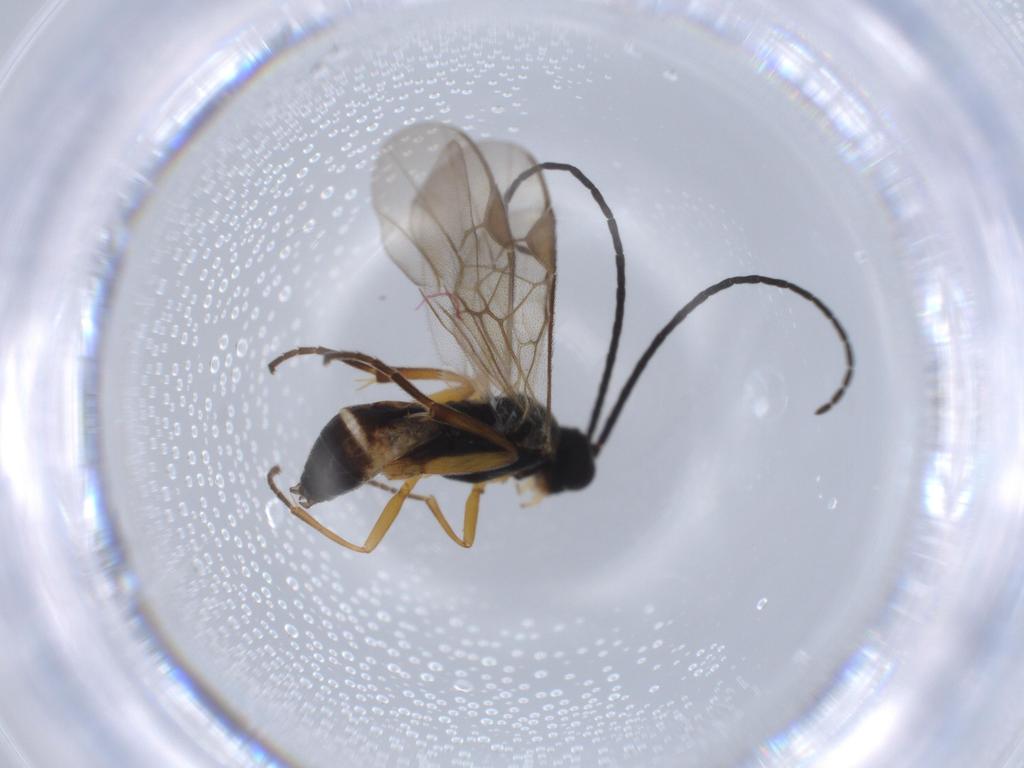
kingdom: Animalia
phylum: Arthropoda
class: Insecta
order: Hymenoptera
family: Braconidae
